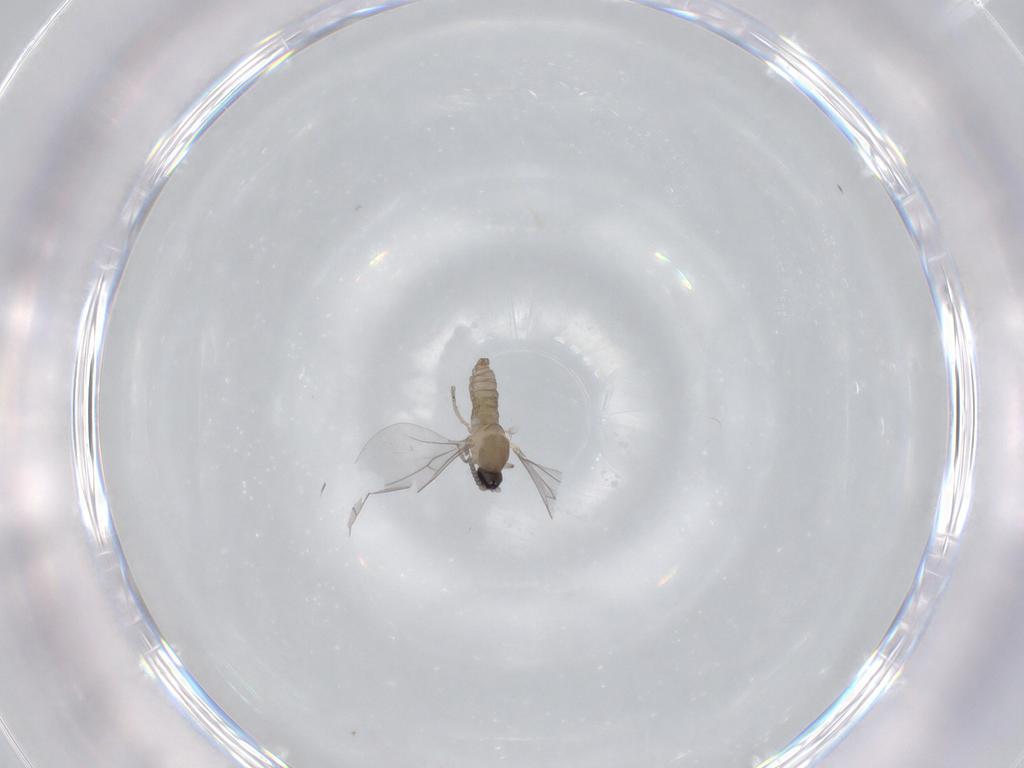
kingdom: Animalia
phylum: Arthropoda
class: Insecta
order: Diptera
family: Cecidomyiidae
